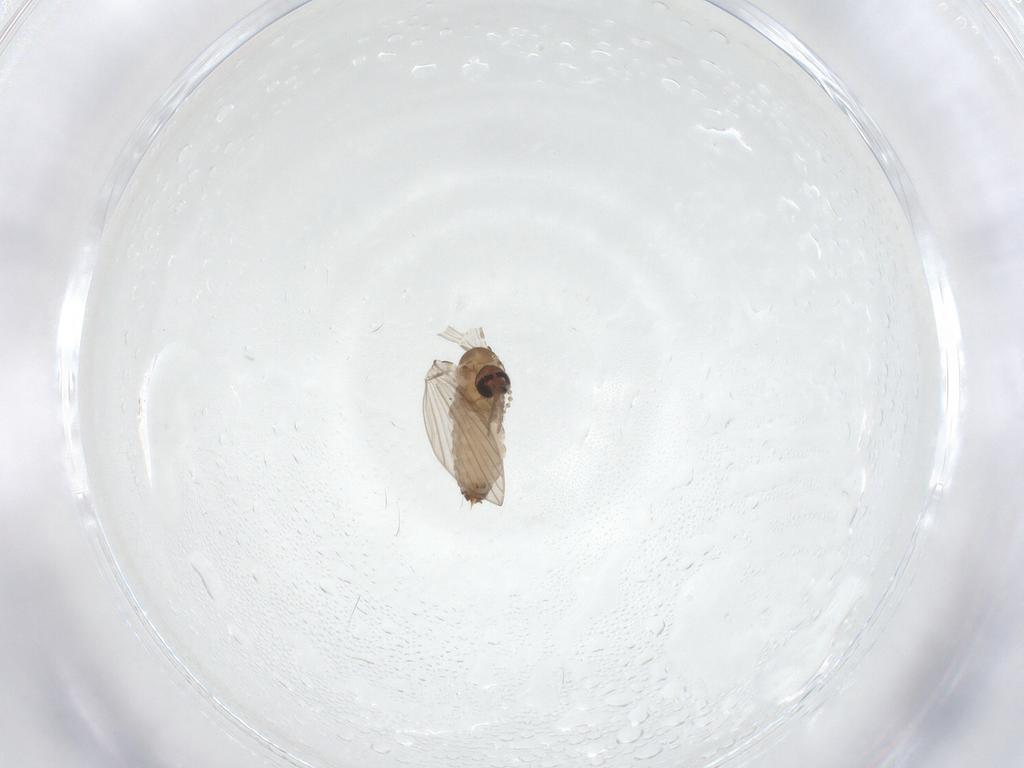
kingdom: Animalia
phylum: Arthropoda
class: Insecta
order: Diptera
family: Psychodidae
